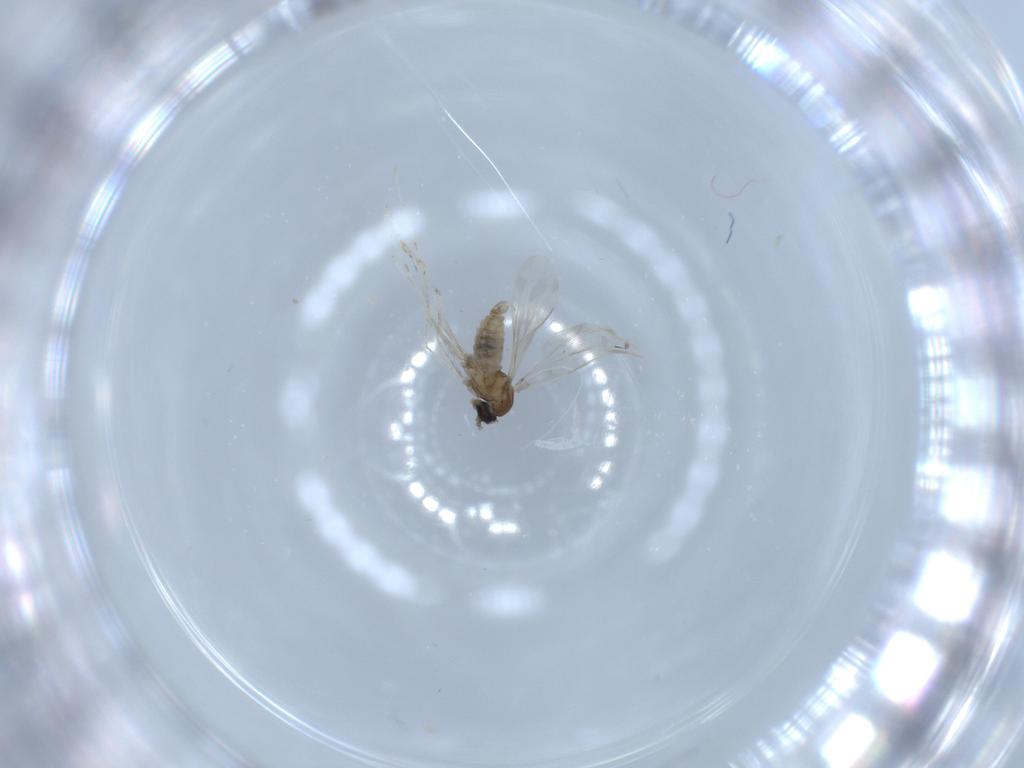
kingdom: Animalia
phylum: Arthropoda
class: Insecta
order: Diptera
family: Sciaridae
